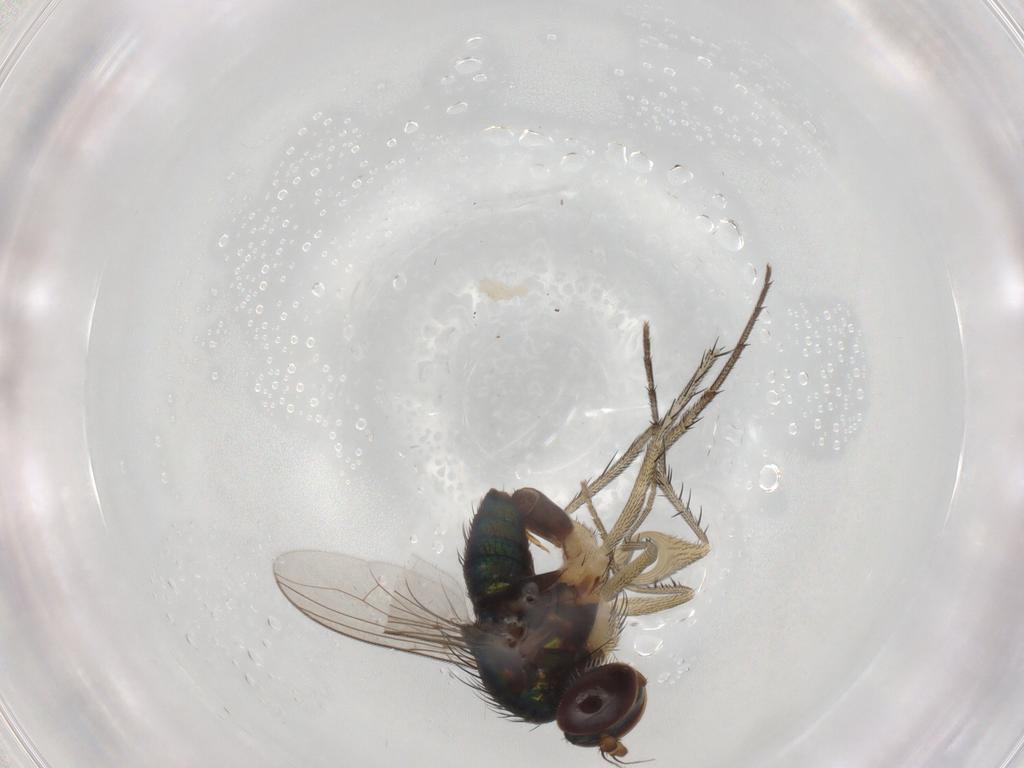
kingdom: Animalia
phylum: Arthropoda
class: Insecta
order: Diptera
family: Dolichopodidae
